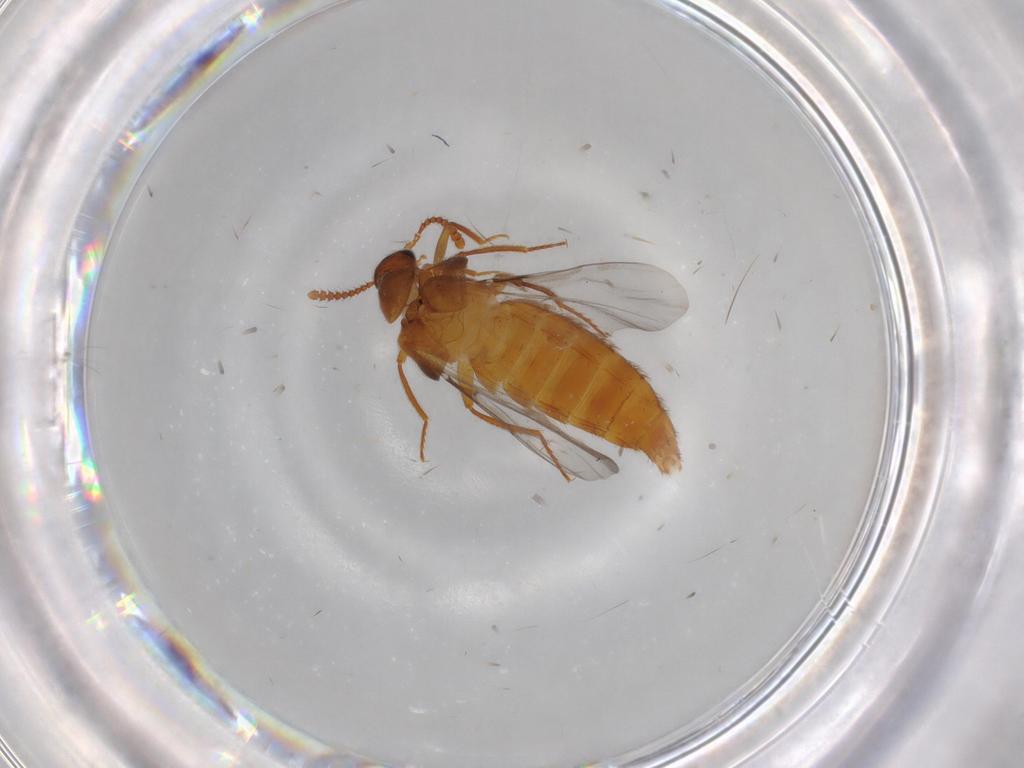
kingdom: Animalia
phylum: Arthropoda
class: Insecta
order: Coleoptera
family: Staphylinidae
